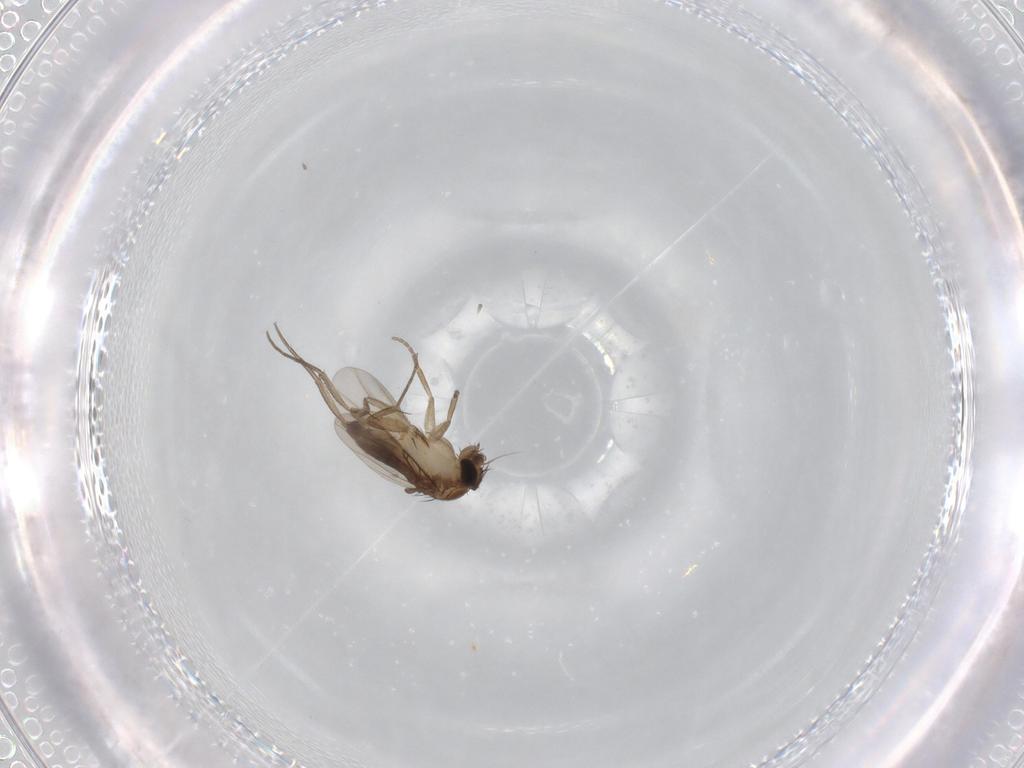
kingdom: Animalia
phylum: Arthropoda
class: Insecta
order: Diptera
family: Phoridae
